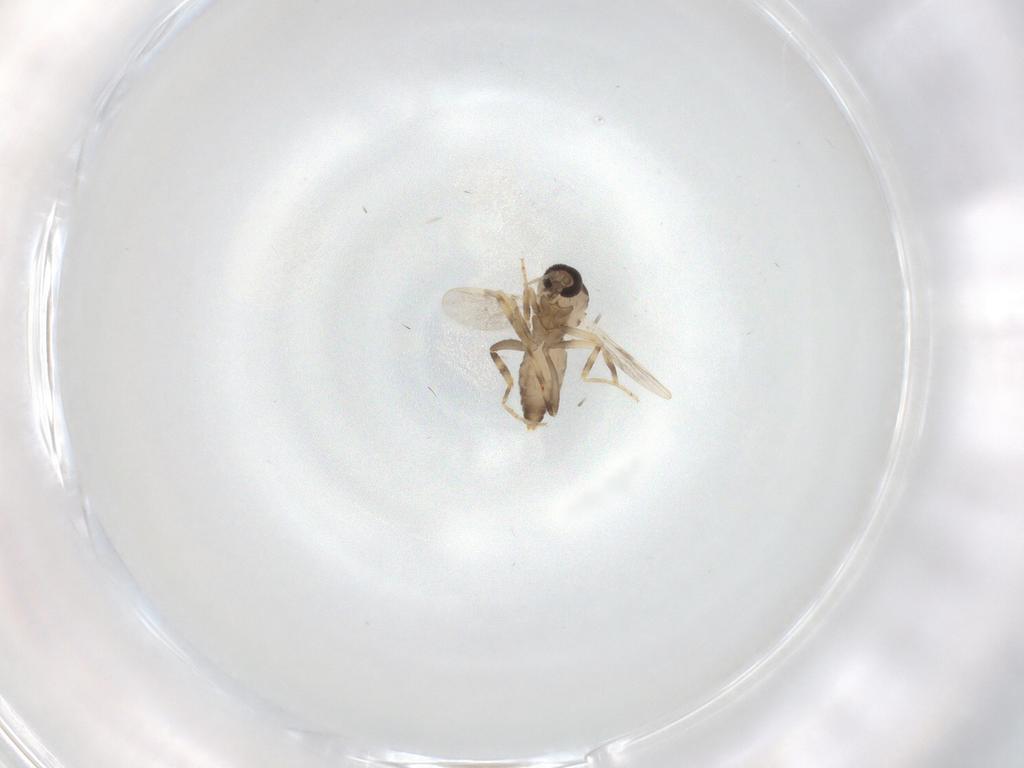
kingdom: Animalia
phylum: Arthropoda
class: Insecta
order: Diptera
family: Ceratopogonidae
